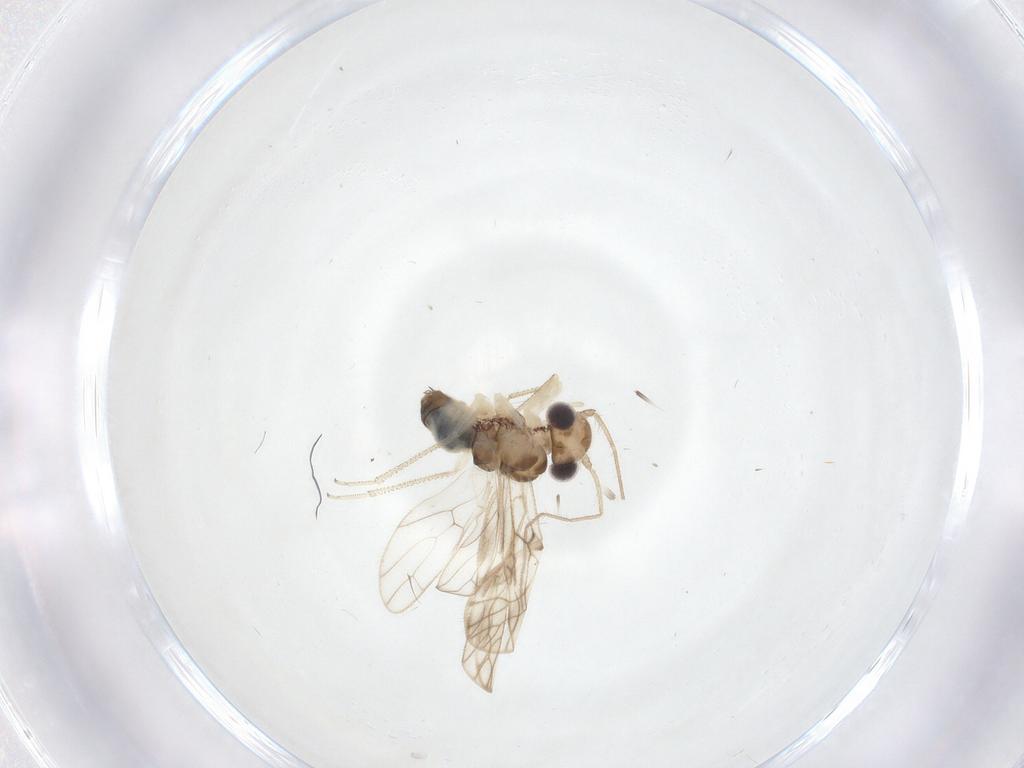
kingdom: Animalia
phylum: Arthropoda
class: Insecta
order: Psocodea
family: Caeciliusidae
